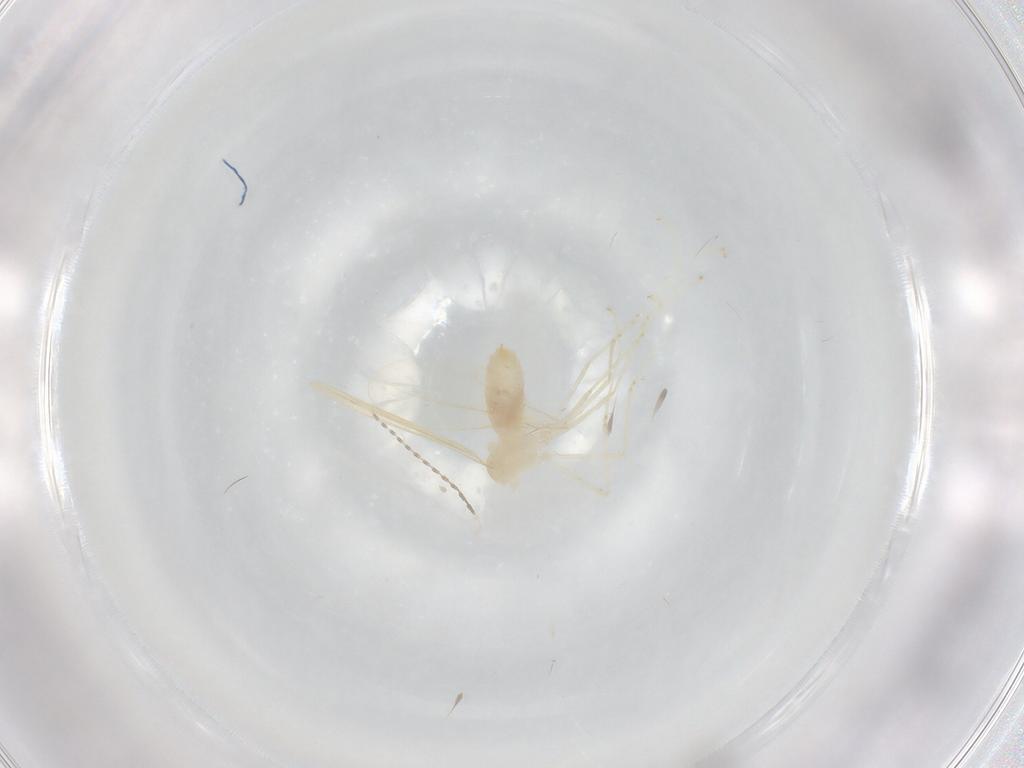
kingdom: Animalia
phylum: Arthropoda
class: Insecta
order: Diptera
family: Cecidomyiidae
